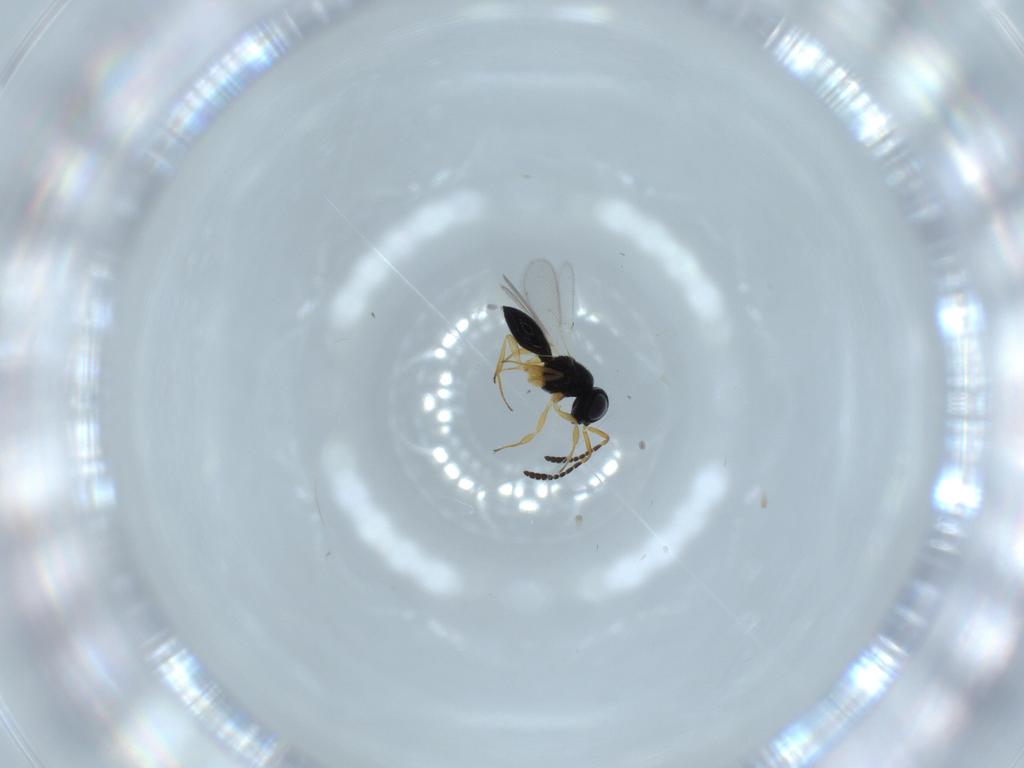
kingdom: Animalia
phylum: Arthropoda
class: Insecta
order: Hymenoptera
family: Scelionidae
